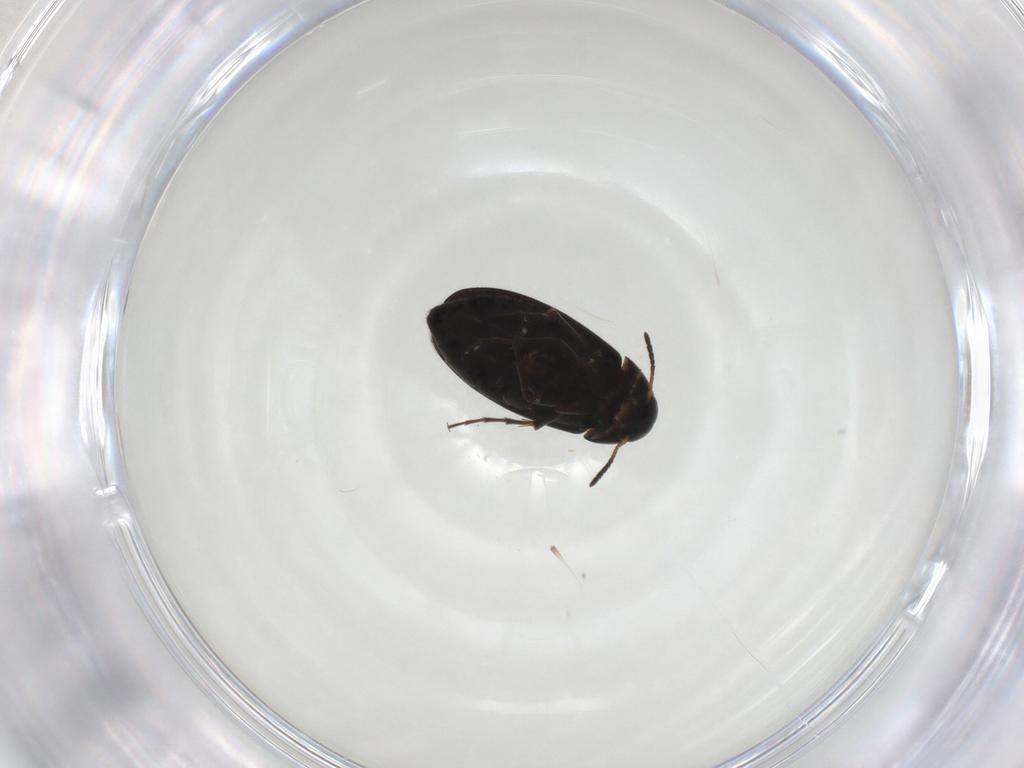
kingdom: Animalia
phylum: Arthropoda
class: Insecta
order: Coleoptera
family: Scraptiidae
